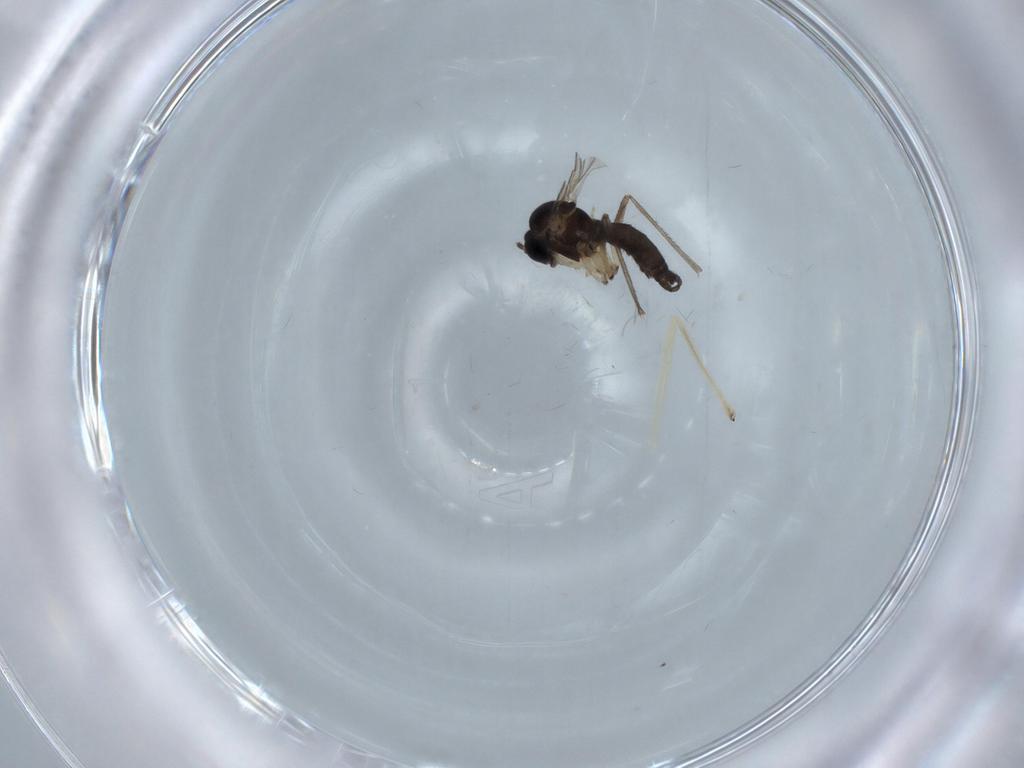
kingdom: Animalia
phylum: Arthropoda
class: Insecta
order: Diptera
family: Sciaridae
